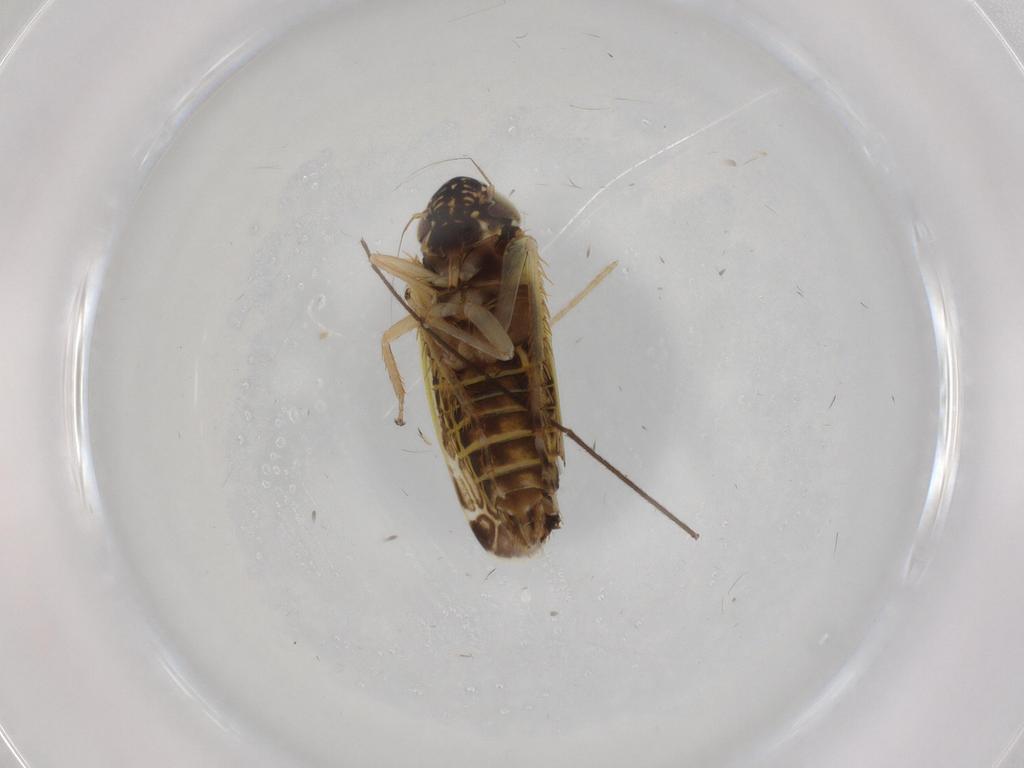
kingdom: Animalia
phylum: Arthropoda
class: Insecta
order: Hemiptera
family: Cicadellidae
